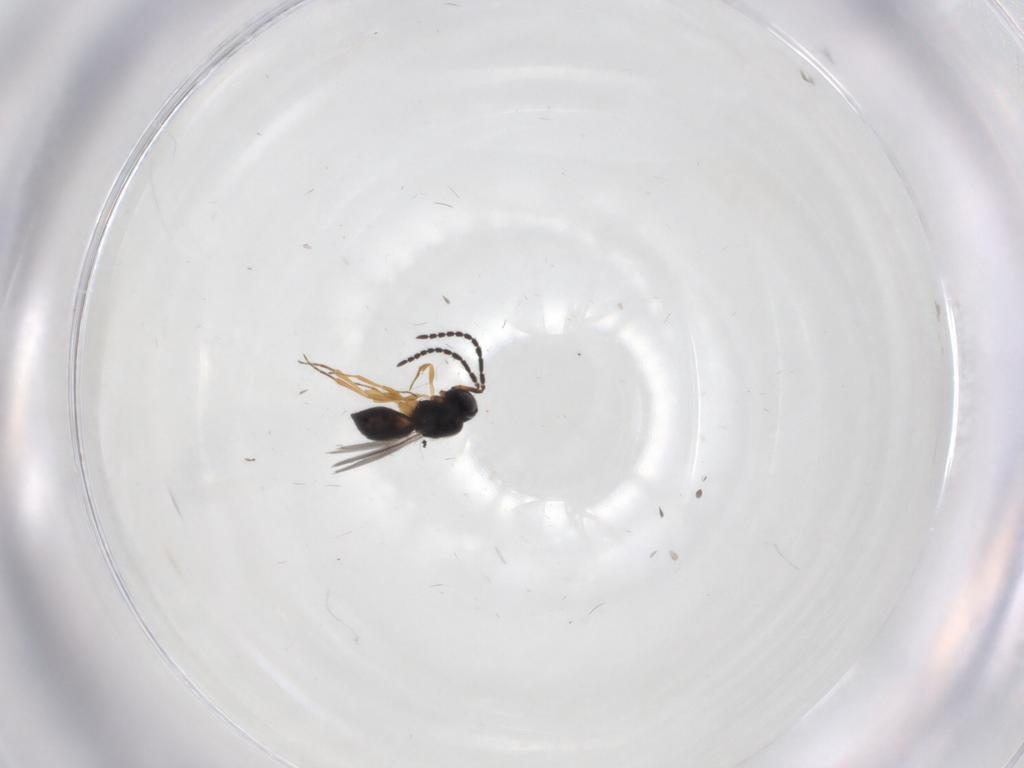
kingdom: Animalia
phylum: Arthropoda
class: Insecta
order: Hymenoptera
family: Scelionidae
